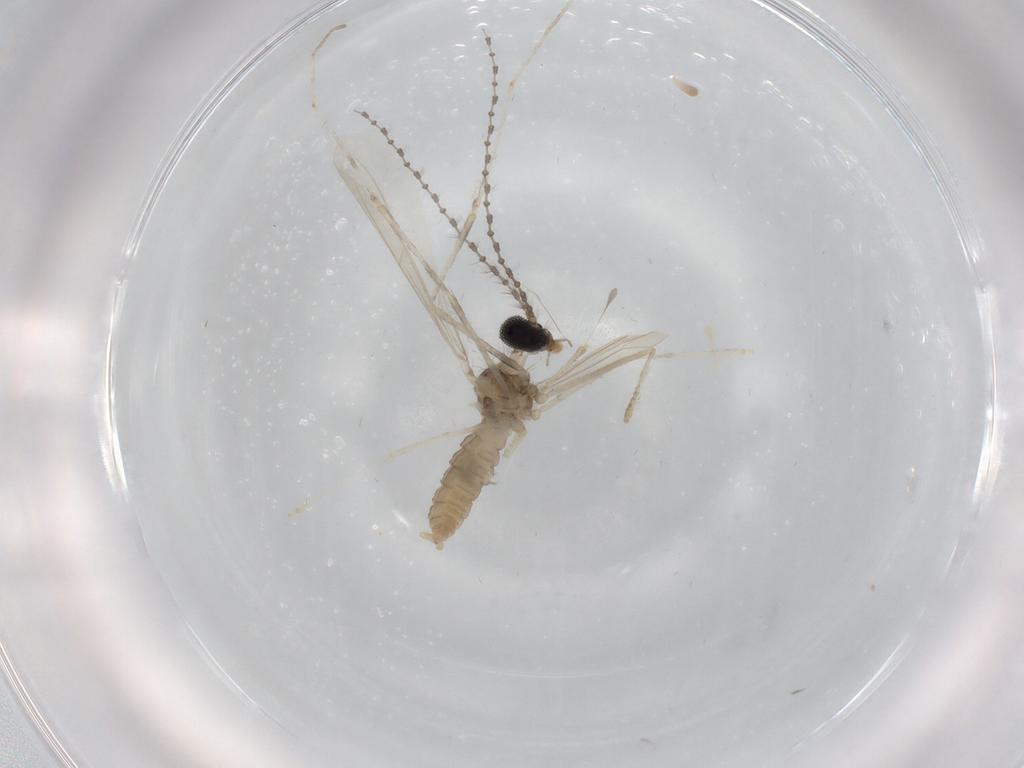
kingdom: Animalia
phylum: Arthropoda
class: Insecta
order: Diptera
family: Cecidomyiidae
